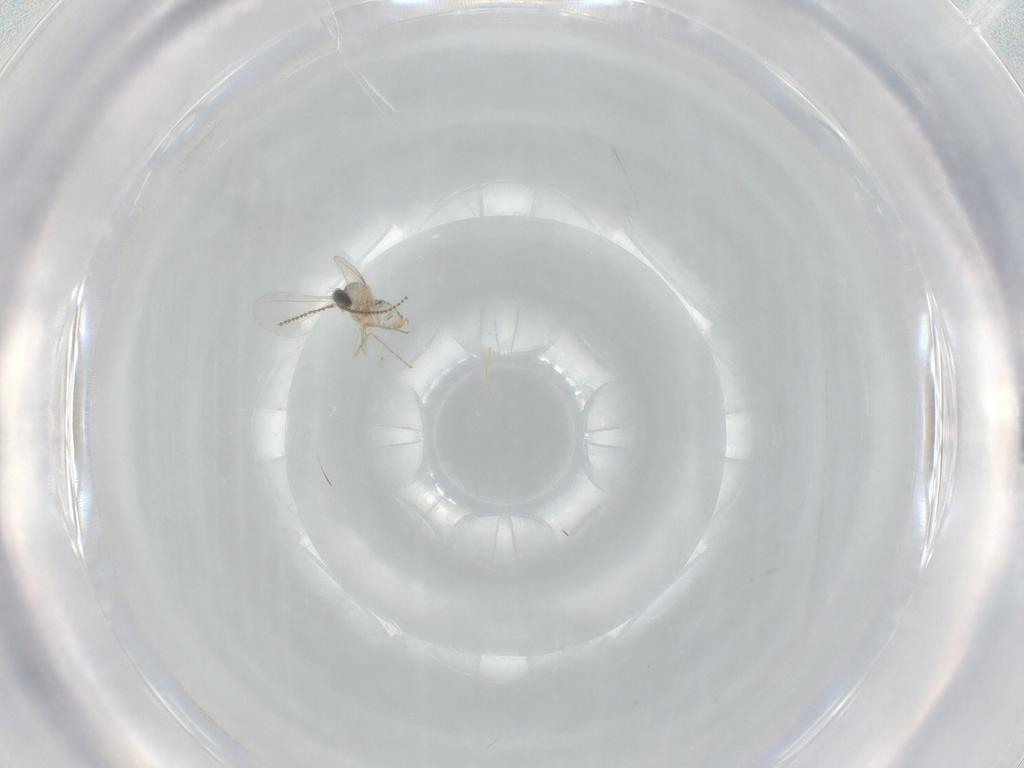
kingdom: Animalia
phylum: Arthropoda
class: Insecta
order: Diptera
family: Cecidomyiidae
